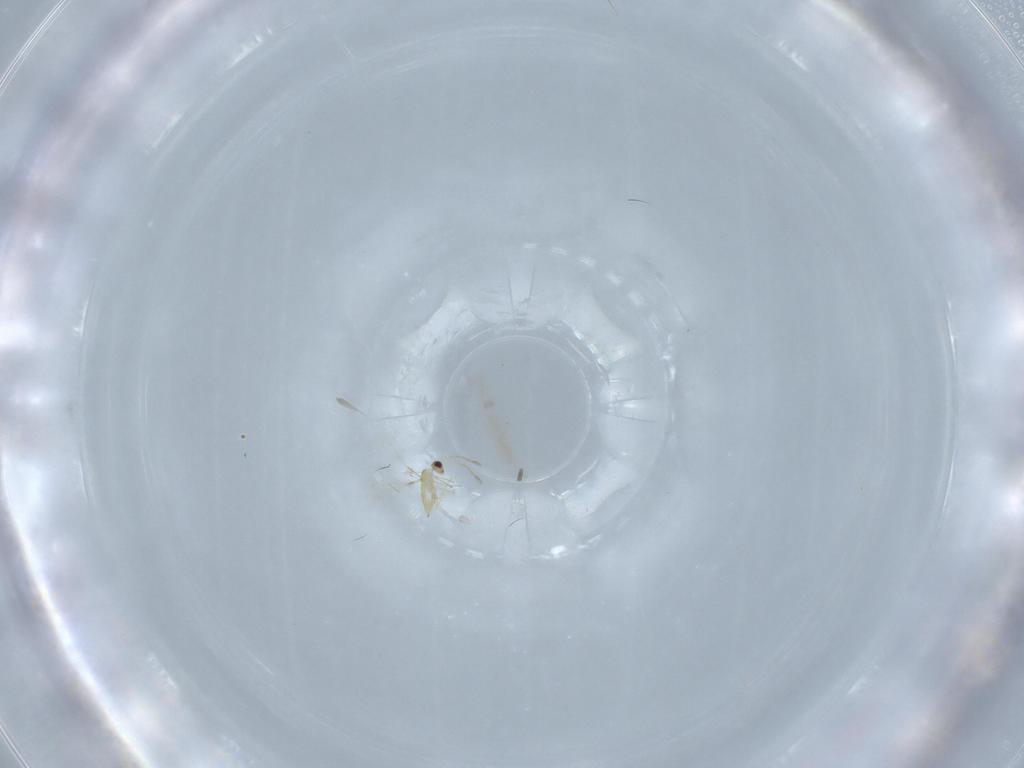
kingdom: Animalia
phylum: Arthropoda
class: Insecta
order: Hymenoptera
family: Mymaridae
